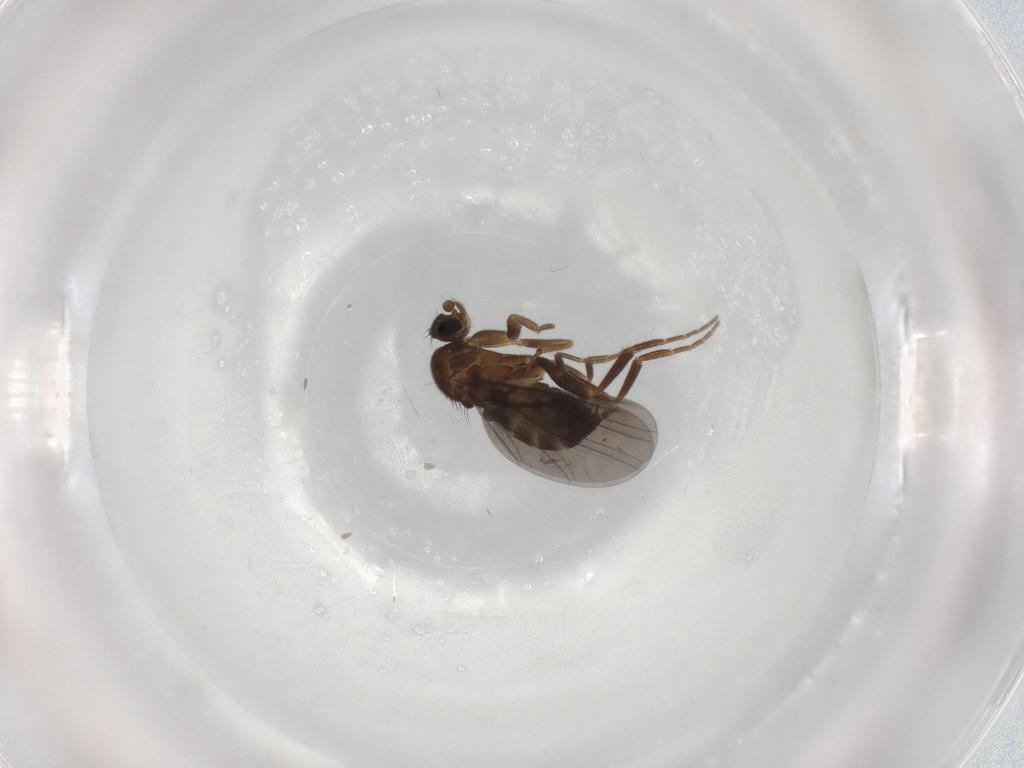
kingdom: Animalia
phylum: Arthropoda
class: Insecta
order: Diptera
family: Phoridae
